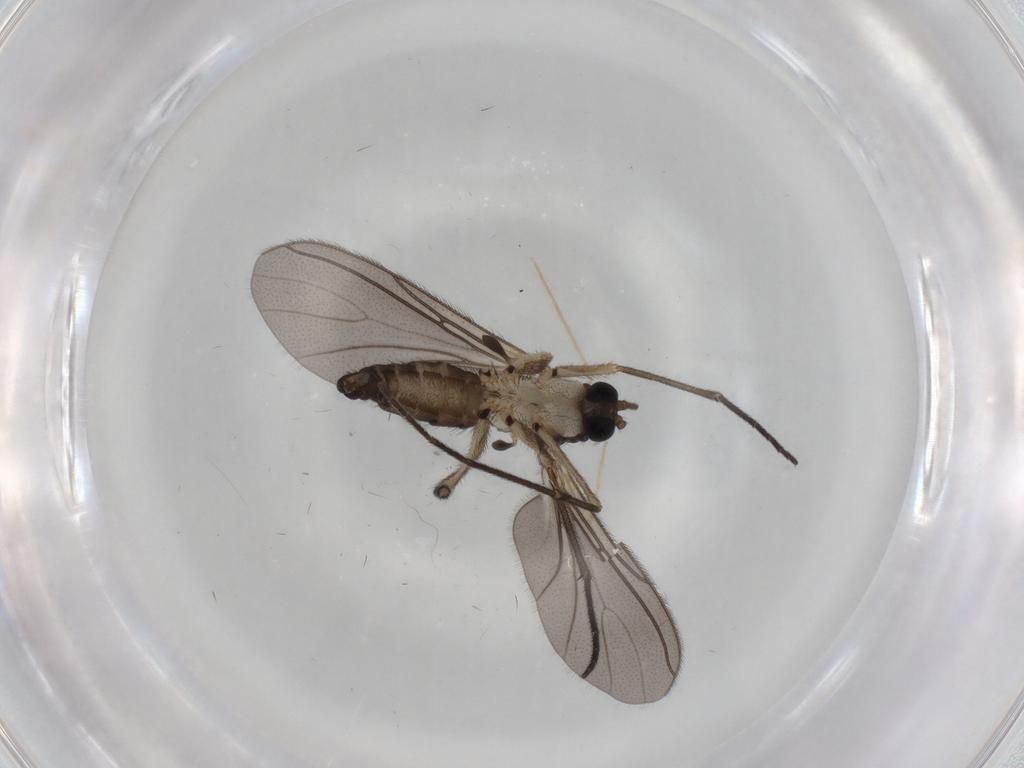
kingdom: Animalia
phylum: Arthropoda
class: Insecta
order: Diptera
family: Sciaridae
